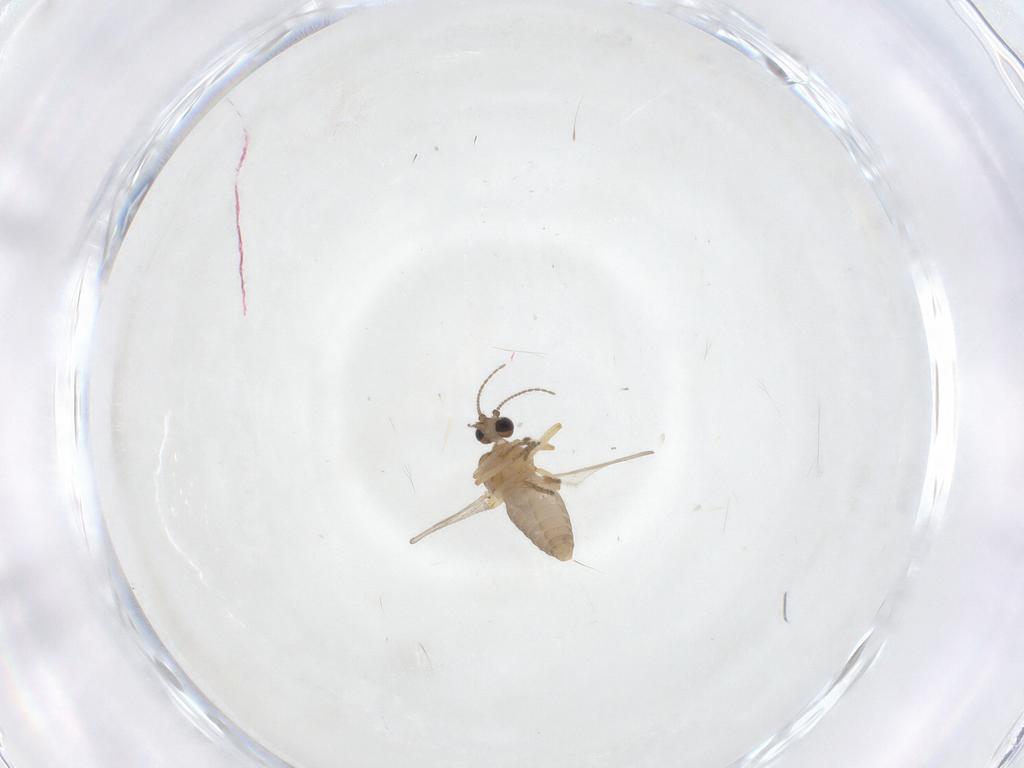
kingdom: Animalia
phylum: Arthropoda
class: Insecta
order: Diptera
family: Ceratopogonidae
